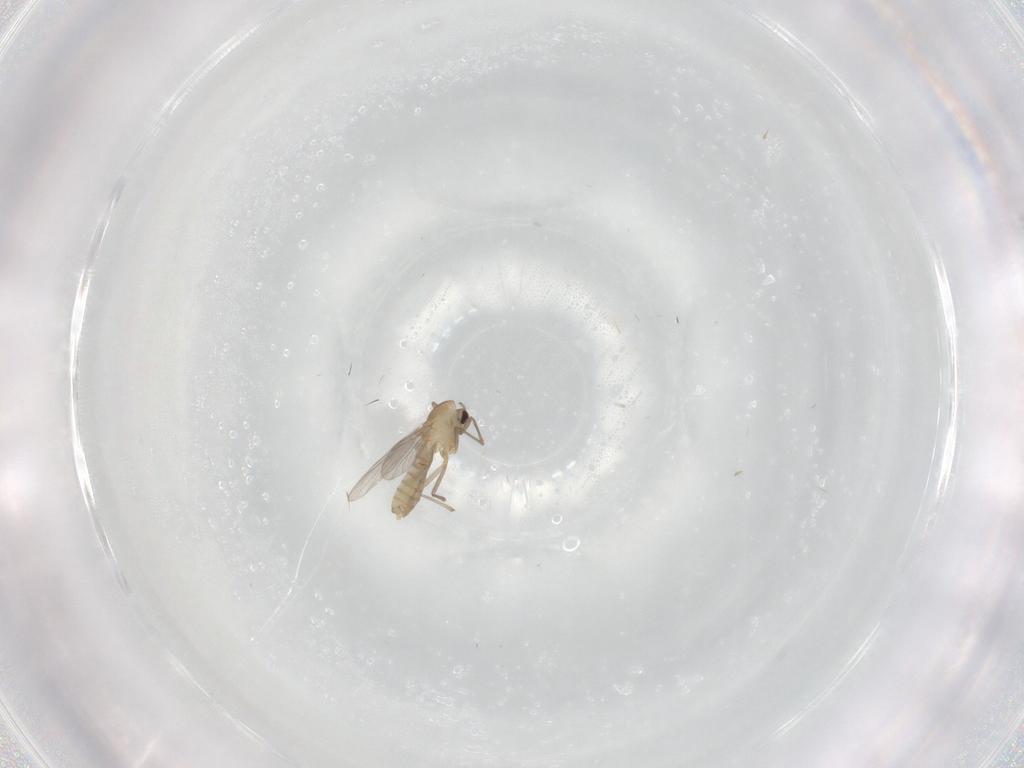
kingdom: Animalia
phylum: Arthropoda
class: Insecta
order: Diptera
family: Chironomidae
